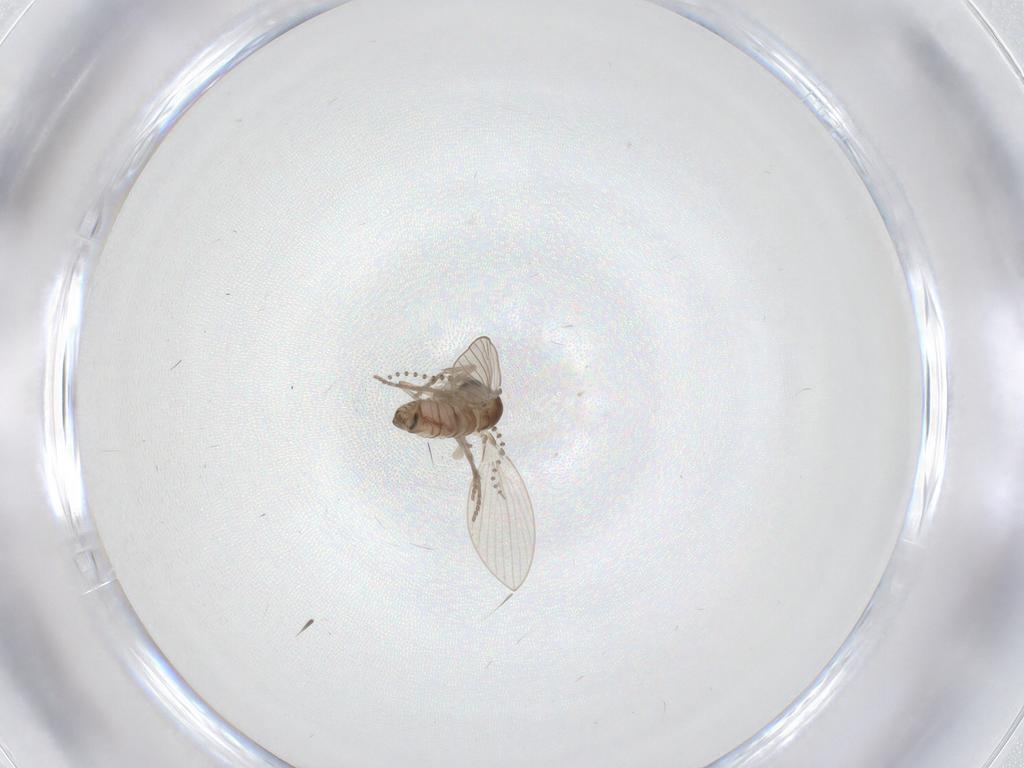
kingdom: Animalia
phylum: Arthropoda
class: Insecta
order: Diptera
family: Psychodidae
